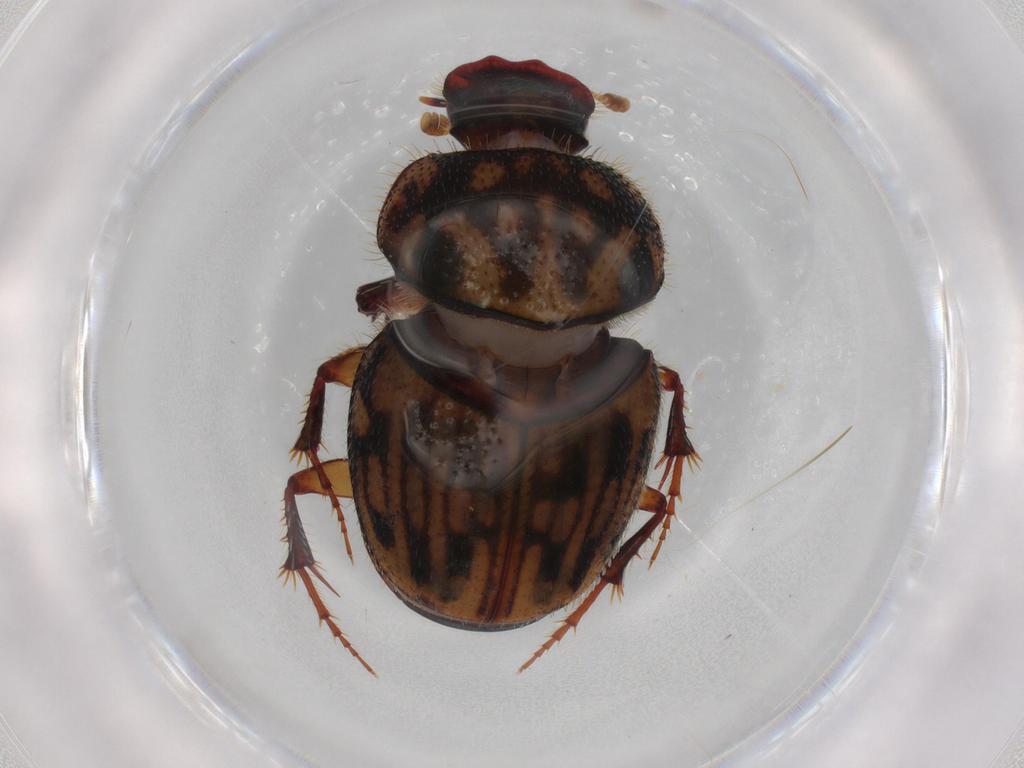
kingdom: Animalia
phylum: Arthropoda
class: Insecta
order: Coleoptera
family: Scarabaeidae
